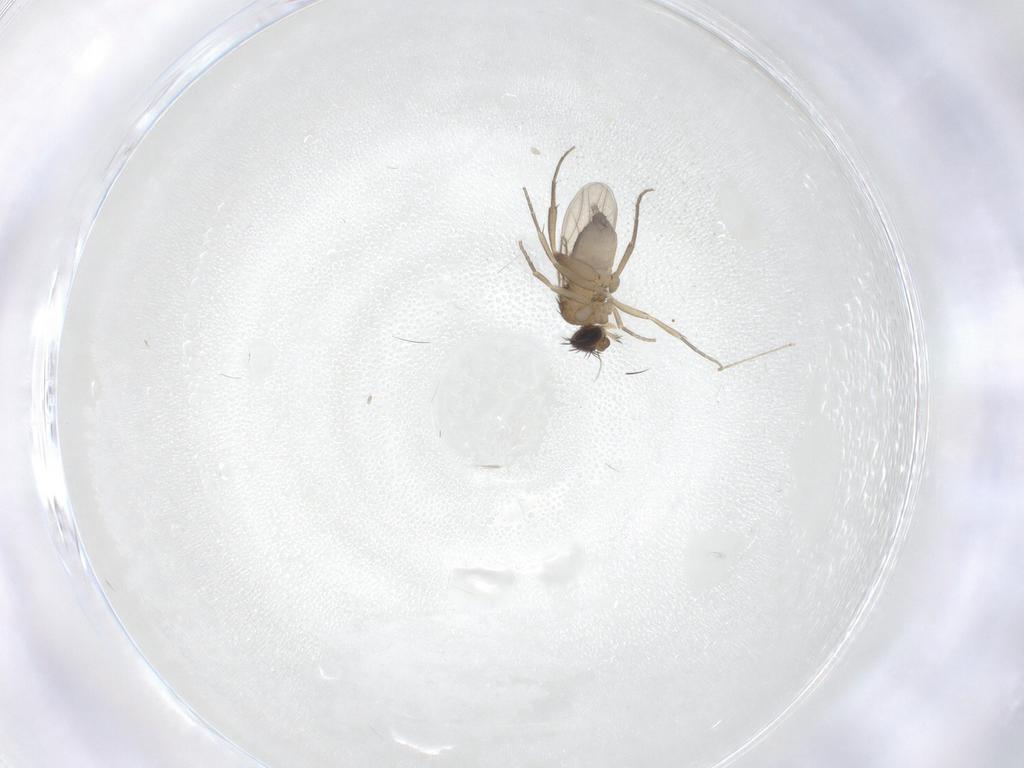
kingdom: Animalia
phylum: Arthropoda
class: Insecta
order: Diptera
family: Phoridae
